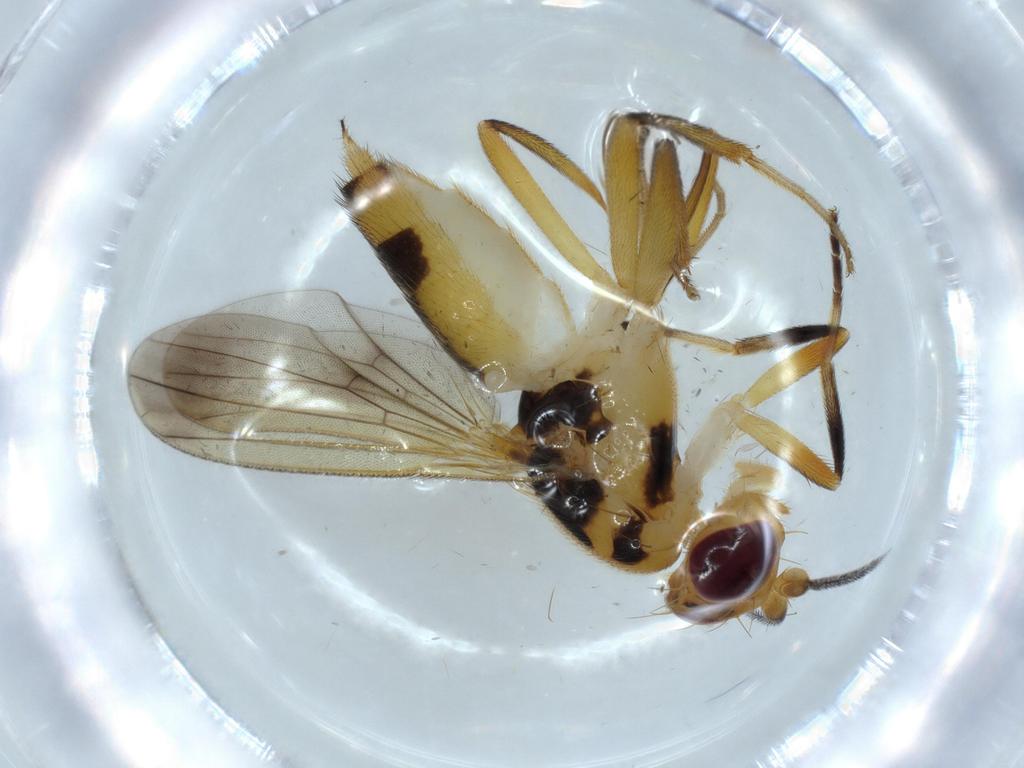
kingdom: Animalia
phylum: Arthropoda
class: Insecta
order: Diptera
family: Clusiidae
